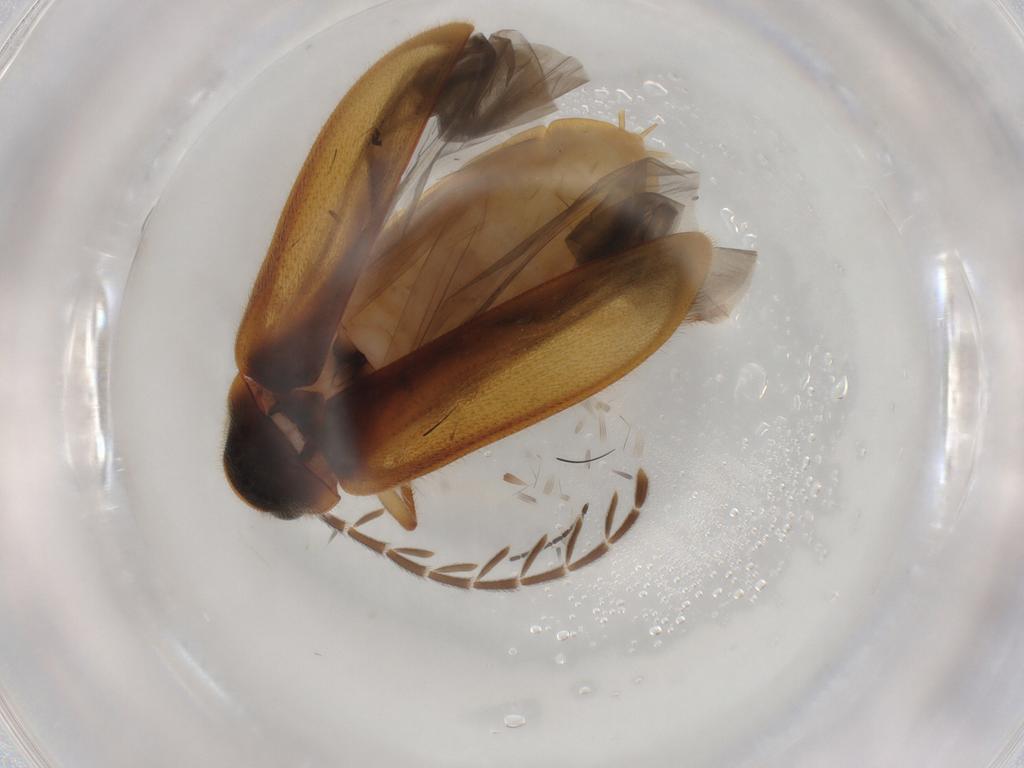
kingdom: Animalia
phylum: Arthropoda
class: Insecta
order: Coleoptera
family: Ptilodactylidae
